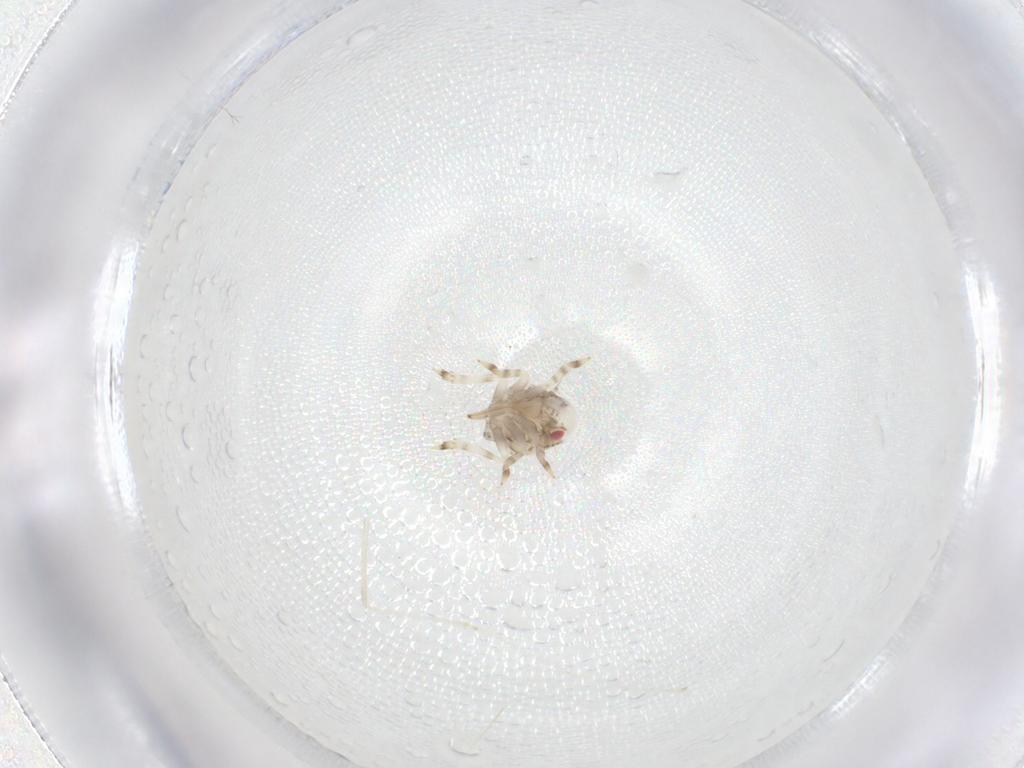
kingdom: Animalia
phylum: Arthropoda
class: Insecta
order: Hemiptera
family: Acanaloniidae
